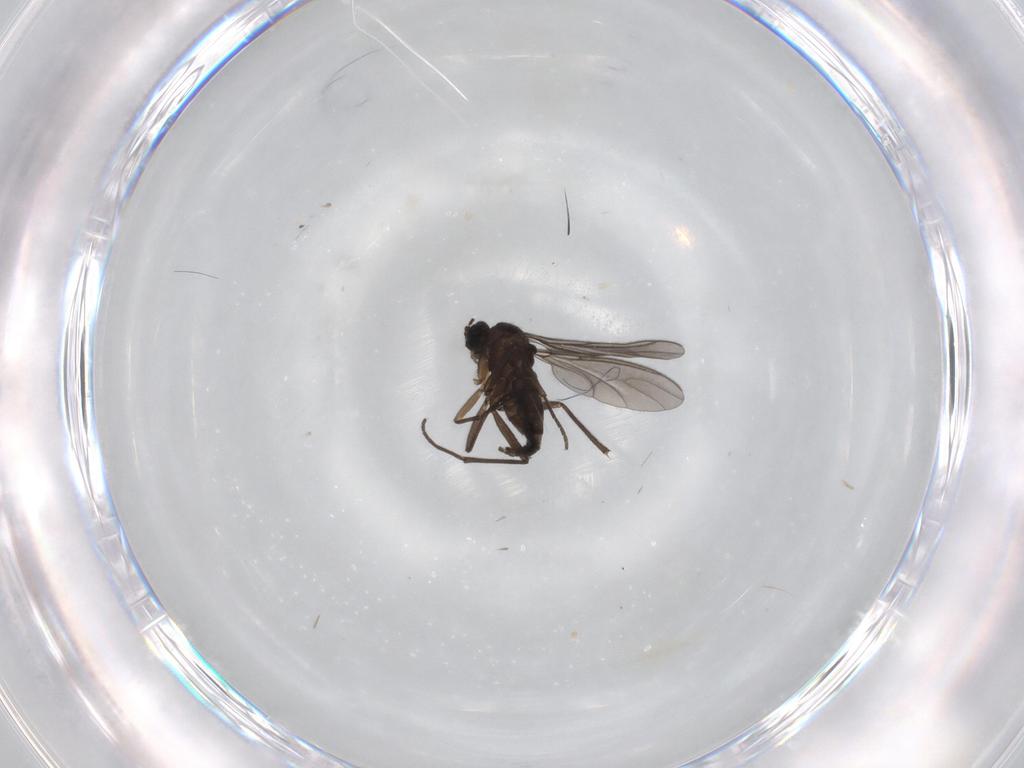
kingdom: Animalia
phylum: Arthropoda
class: Insecta
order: Diptera
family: Sciaridae
